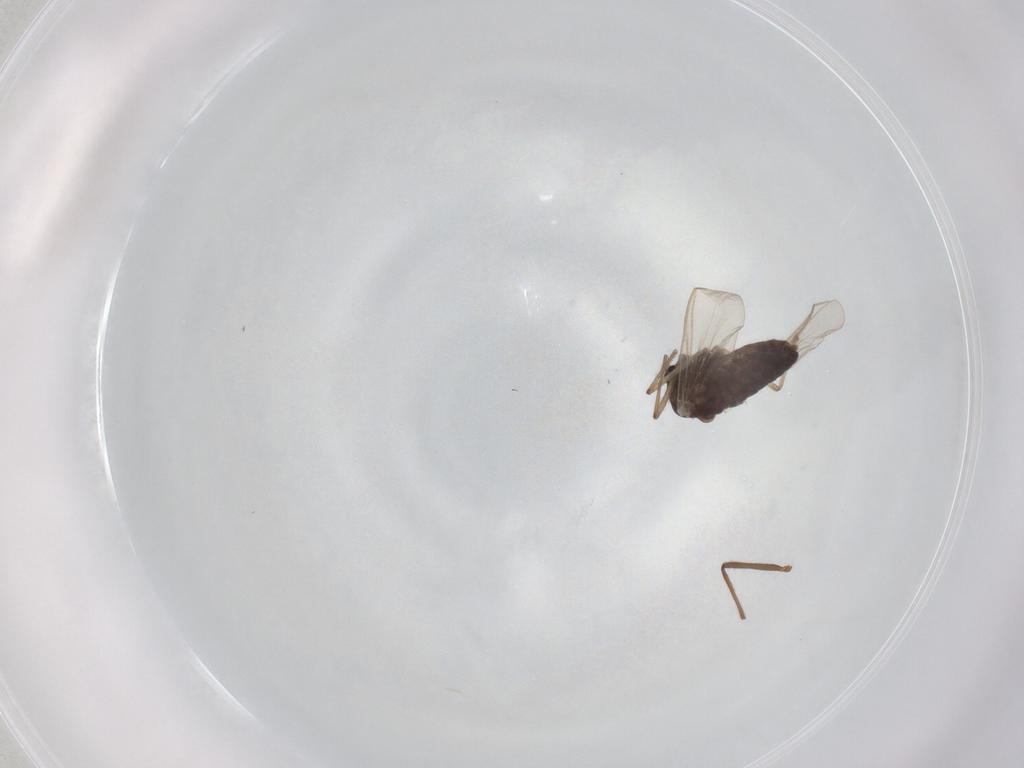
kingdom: Animalia
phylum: Arthropoda
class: Insecta
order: Diptera
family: Chironomidae
